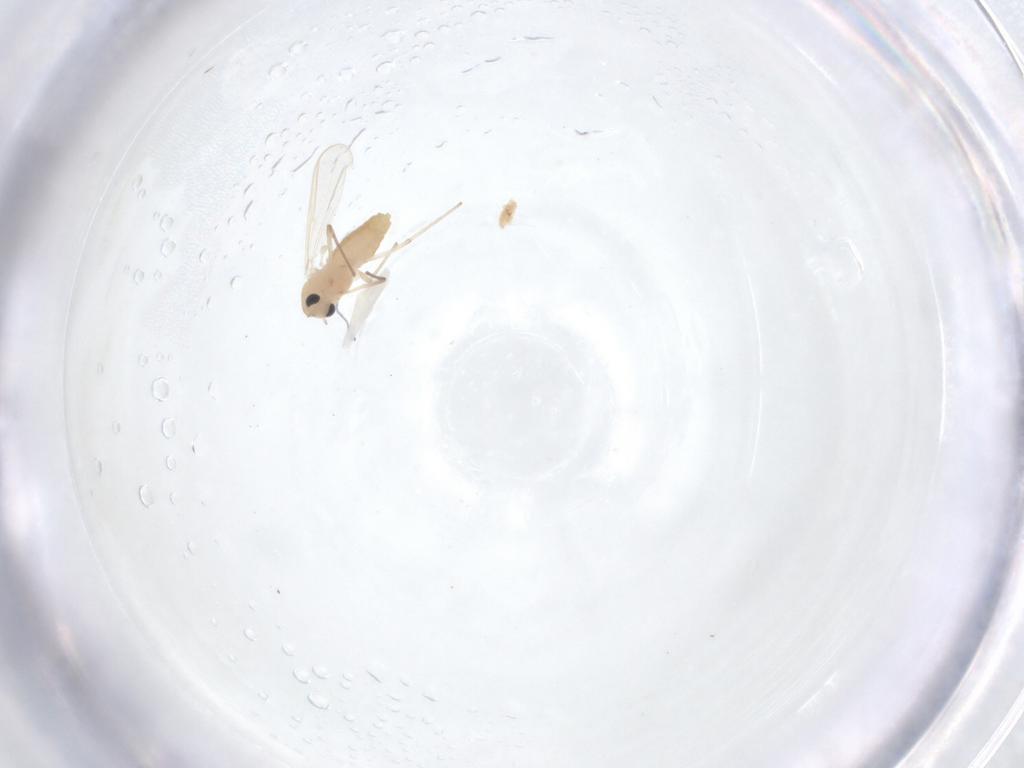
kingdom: Animalia
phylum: Arthropoda
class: Insecta
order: Diptera
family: Chironomidae
